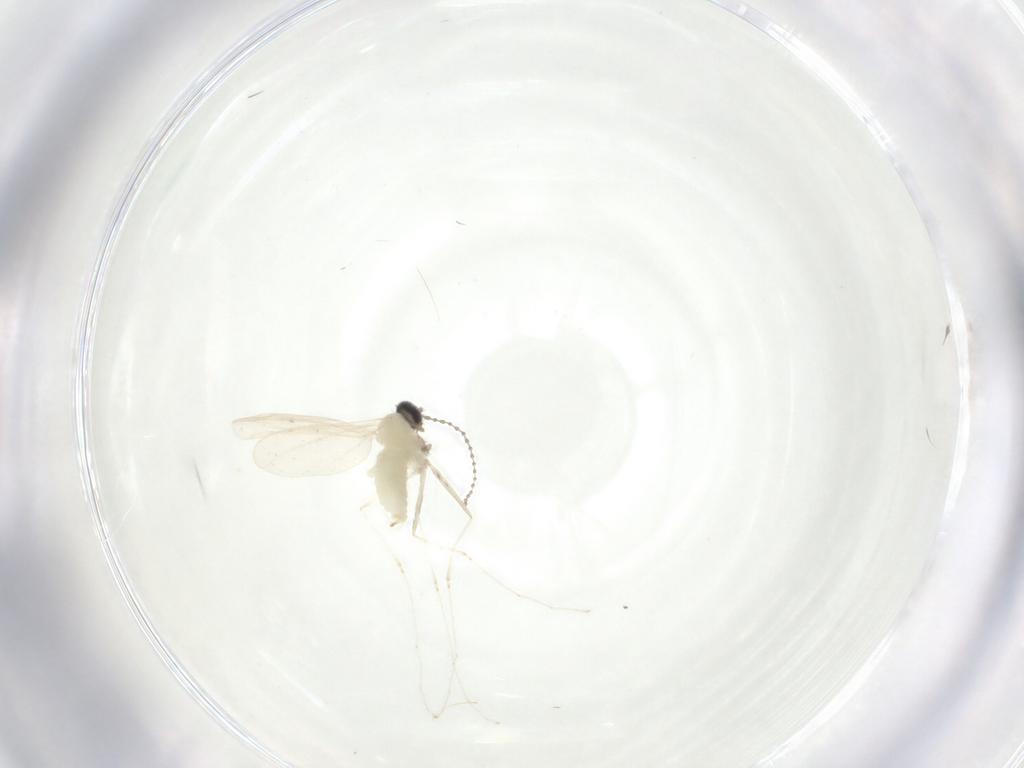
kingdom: Animalia
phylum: Arthropoda
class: Insecta
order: Diptera
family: Cecidomyiidae
